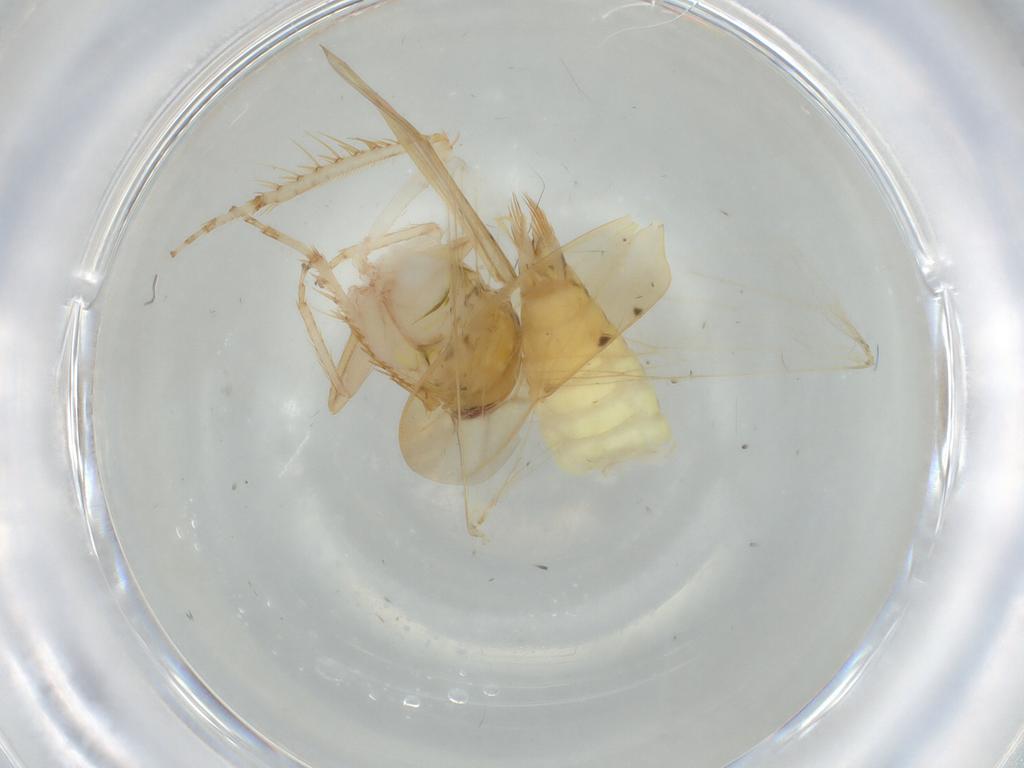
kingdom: Animalia
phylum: Arthropoda
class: Insecta
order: Hemiptera
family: Cicadellidae
